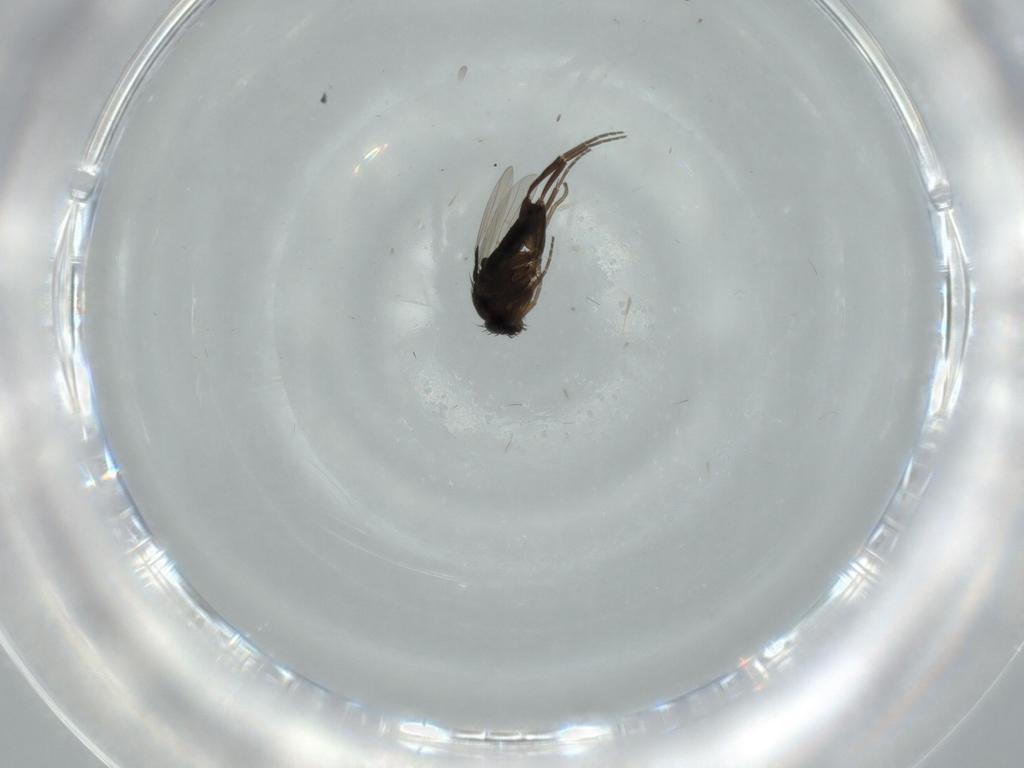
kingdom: Animalia
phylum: Arthropoda
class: Insecta
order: Diptera
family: Phoridae
